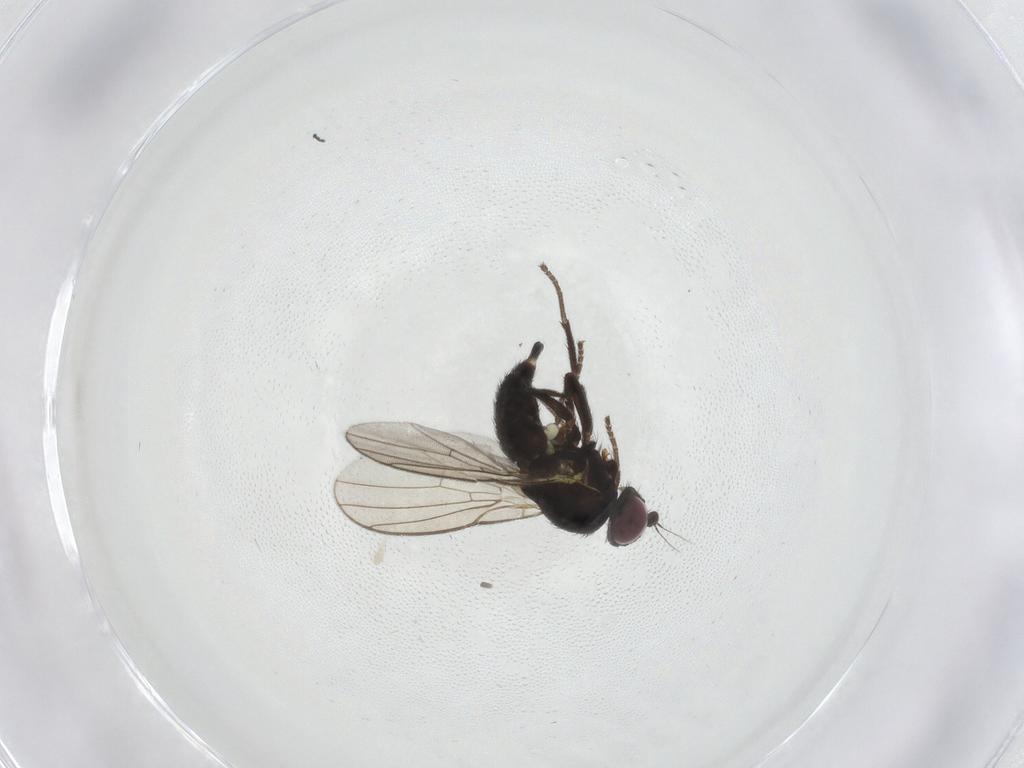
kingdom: Animalia
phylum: Arthropoda
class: Insecta
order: Diptera
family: Agromyzidae
